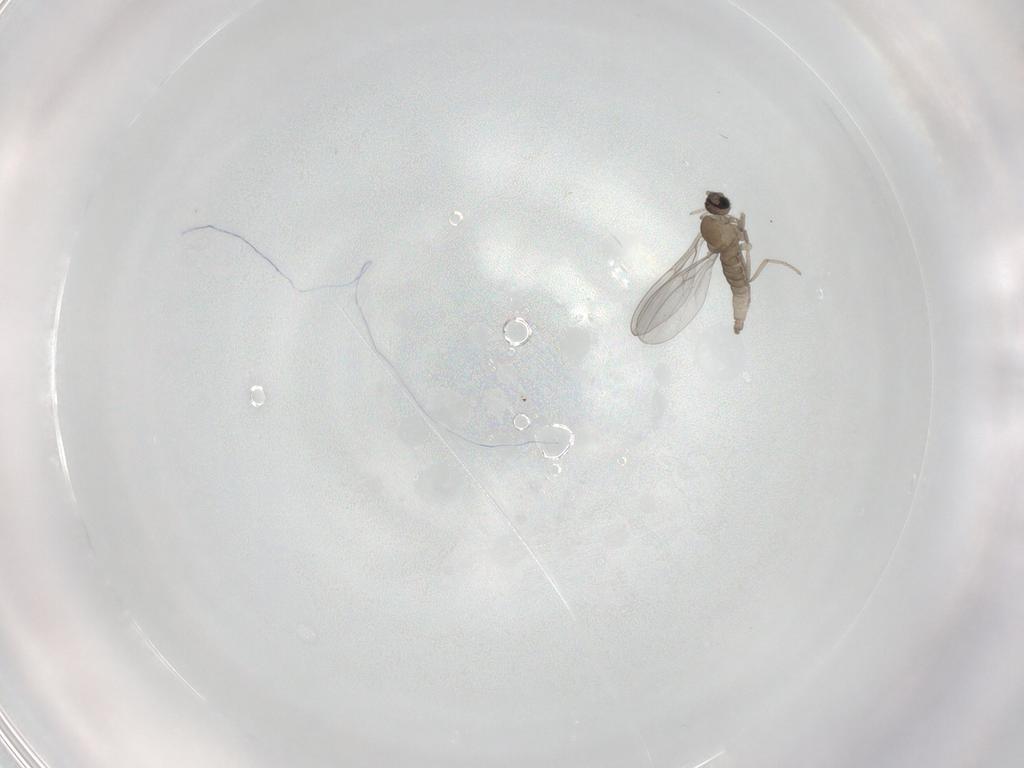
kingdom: Animalia
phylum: Arthropoda
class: Insecta
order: Diptera
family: Cecidomyiidae
